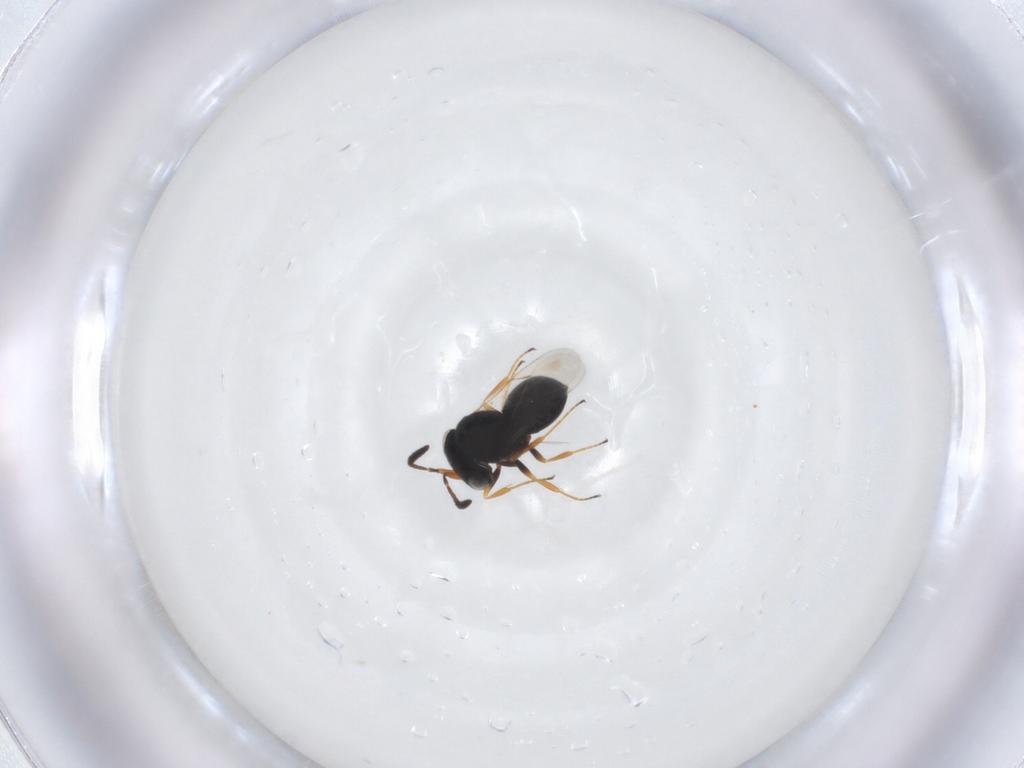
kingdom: Animalia
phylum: Arthropoda
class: Insecta
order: Hymenoptera
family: Scelionidae
